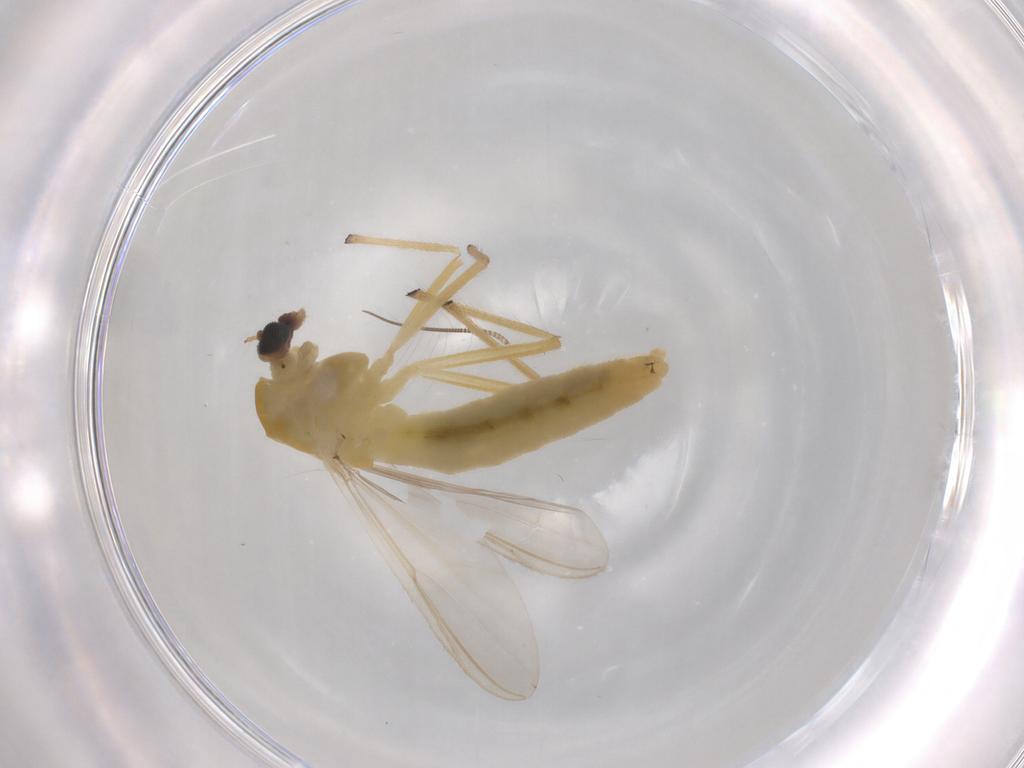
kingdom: Animalia
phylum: Arthropoda
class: Insecta
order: Diptera
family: Chironomidae
